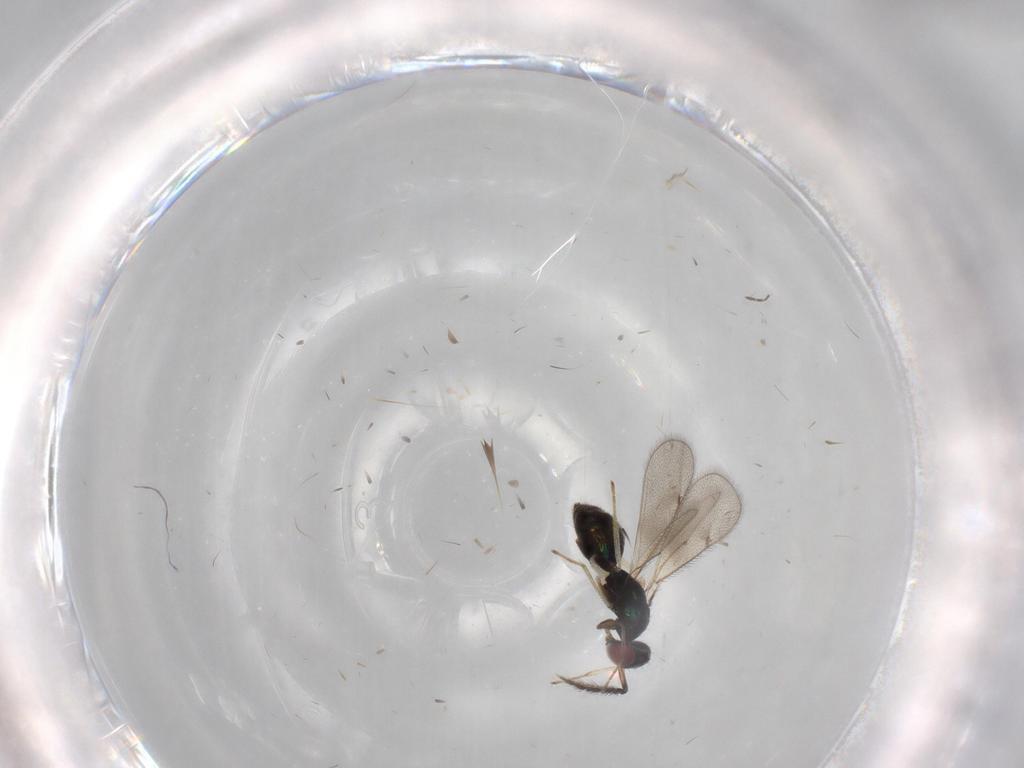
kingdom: Animalia
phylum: Arthropoda
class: Insecta
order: Hymenoptera
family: Eulophidae
